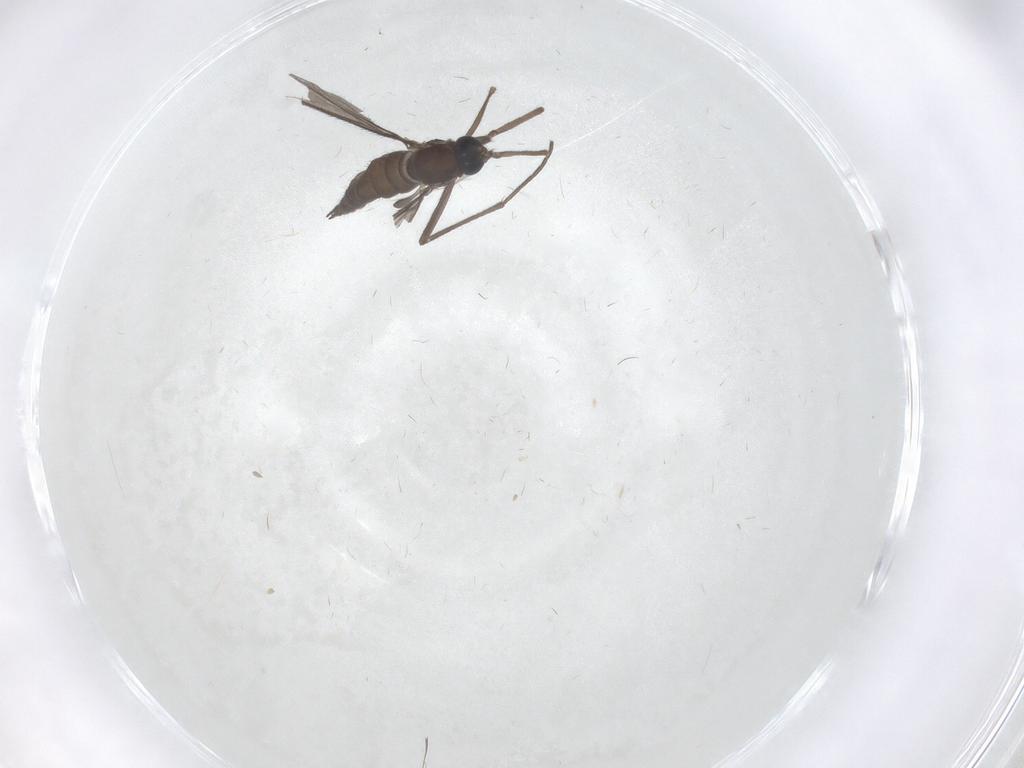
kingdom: Animalia
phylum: Arthropoda
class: Insecta
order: Diptera
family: Sciaridae
